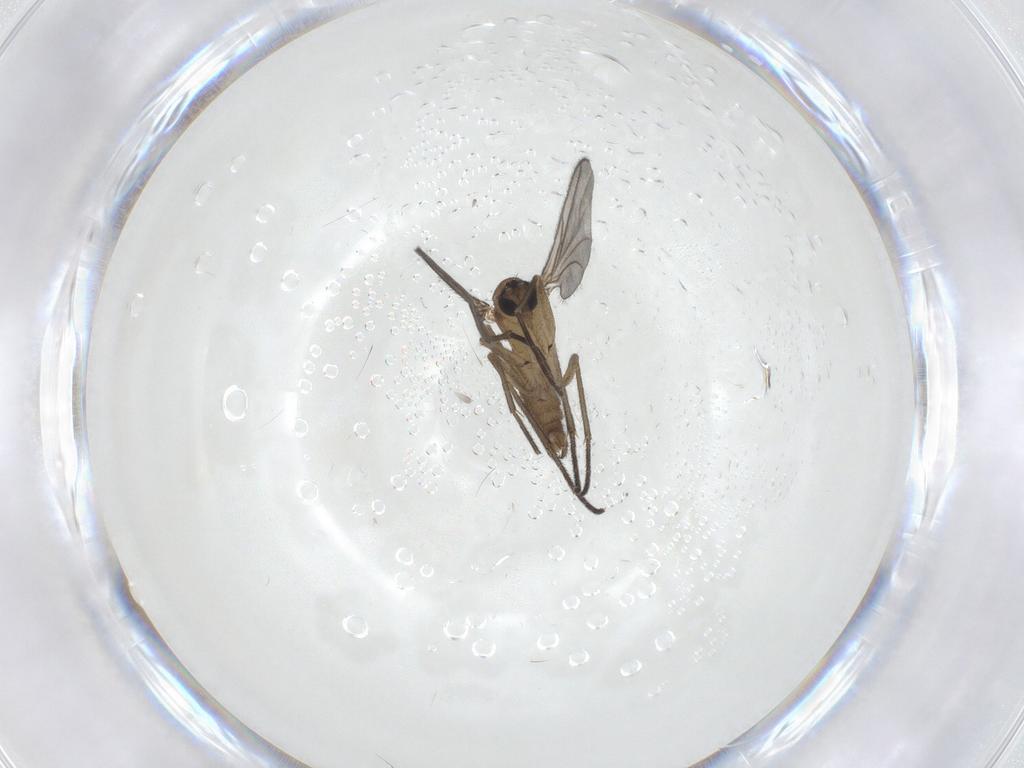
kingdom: Animalia
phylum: Arthropoda
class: Insecta
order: Diptera
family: Sciaridae
